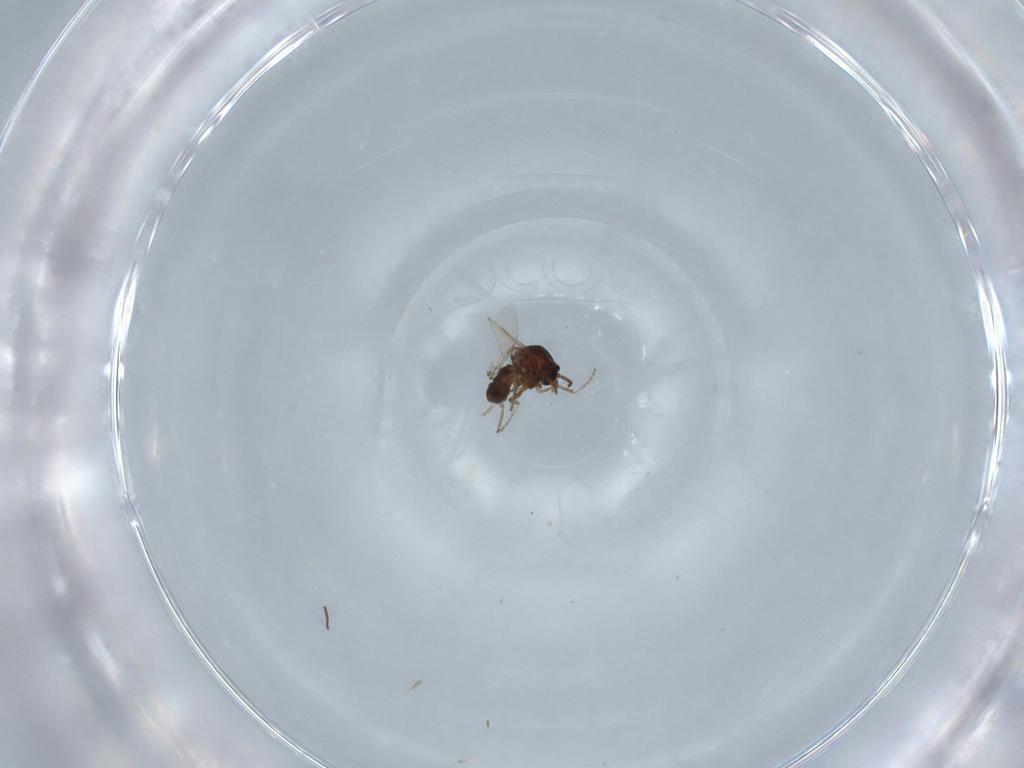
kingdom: Animalia
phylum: Arthropoda
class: Insecta
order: Diptera
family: Ceratopogonidae
